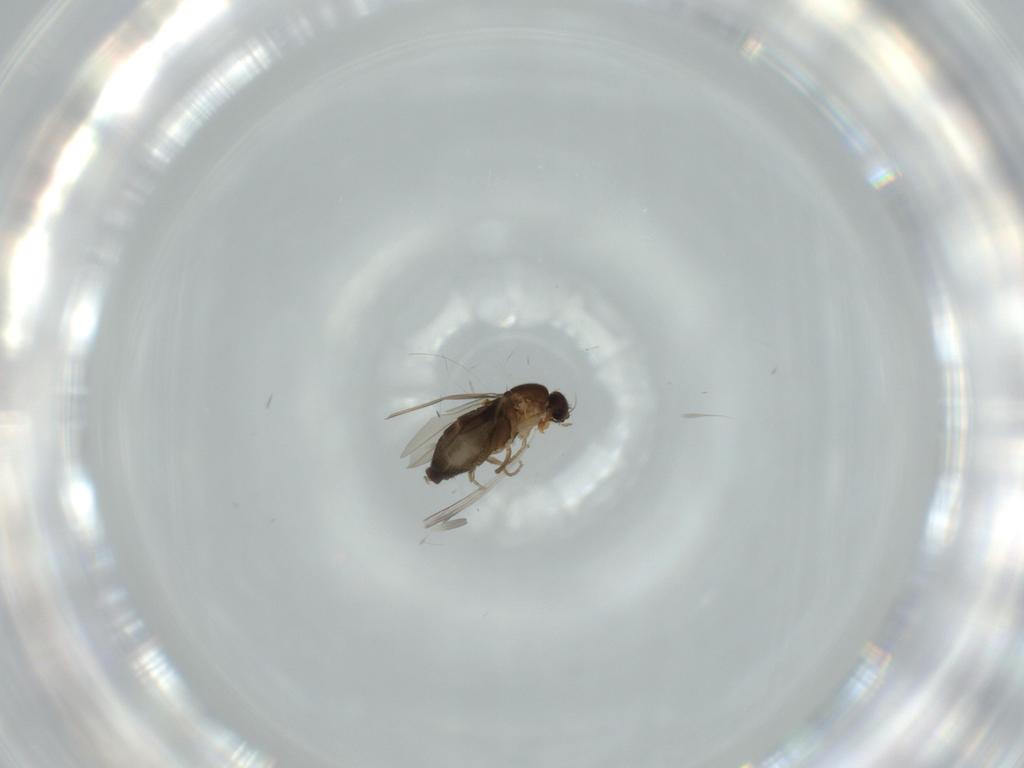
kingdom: Animalia
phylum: Arthropoda
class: Insecta
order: Diptera
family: Phoridae
